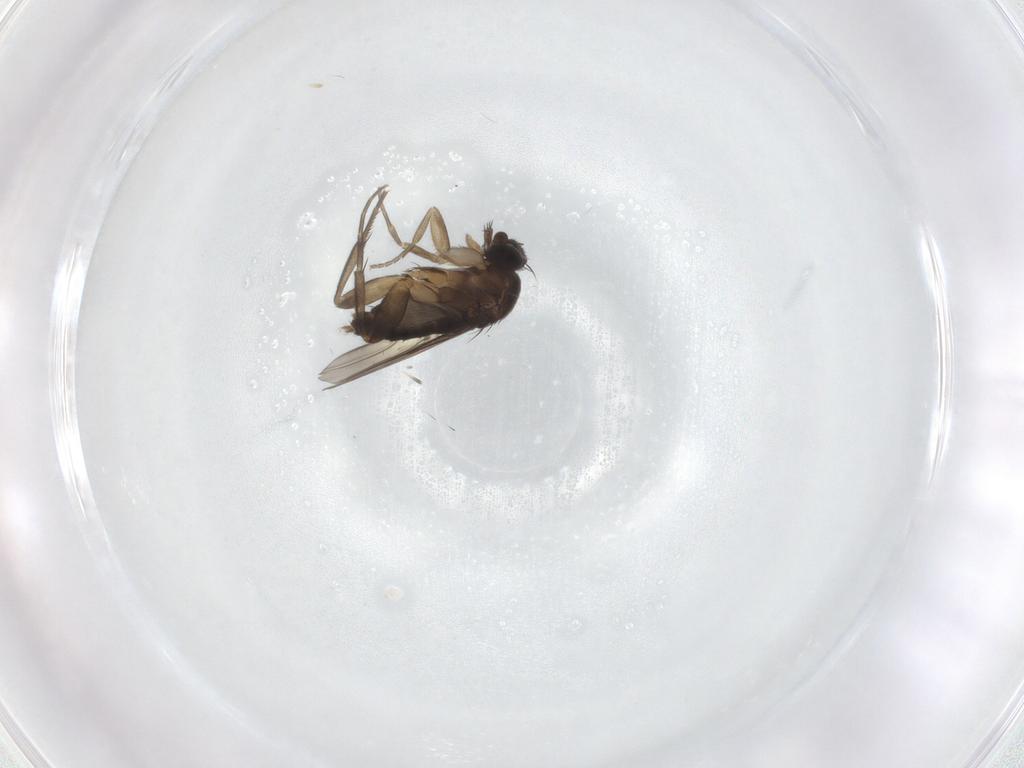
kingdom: Animalia
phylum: Arthropoda
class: Insecta
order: Diptera
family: Phoridae
